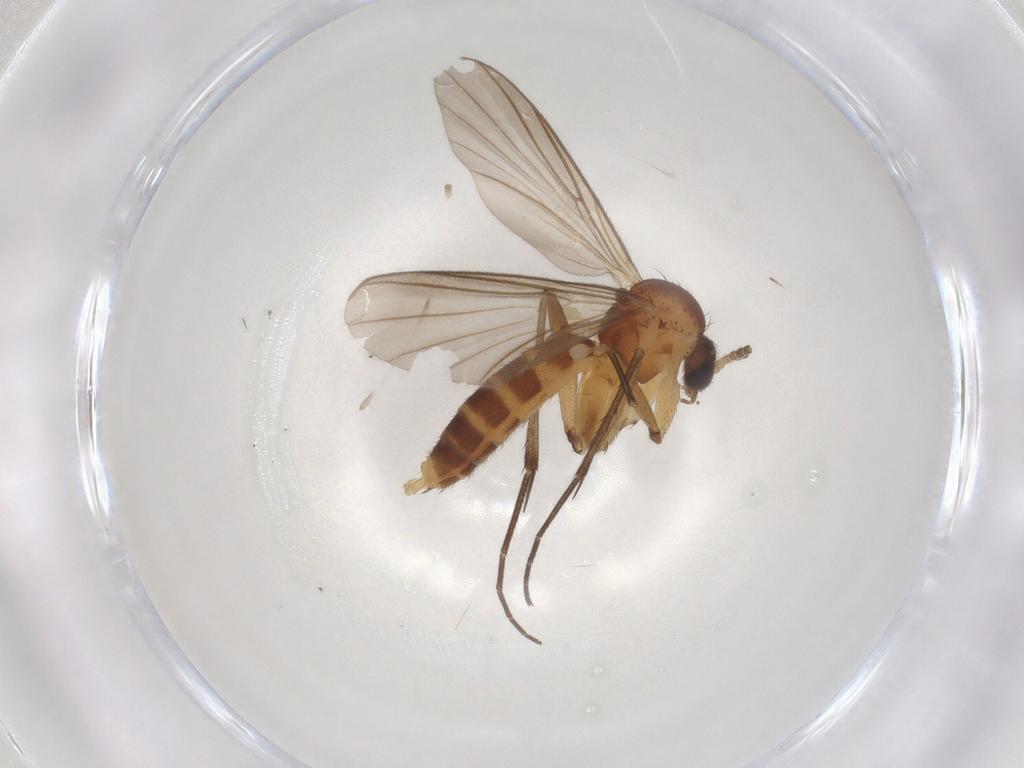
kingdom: Animalia
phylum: Arthropoda
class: Insecta
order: Diptera
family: Mycetophilidae
